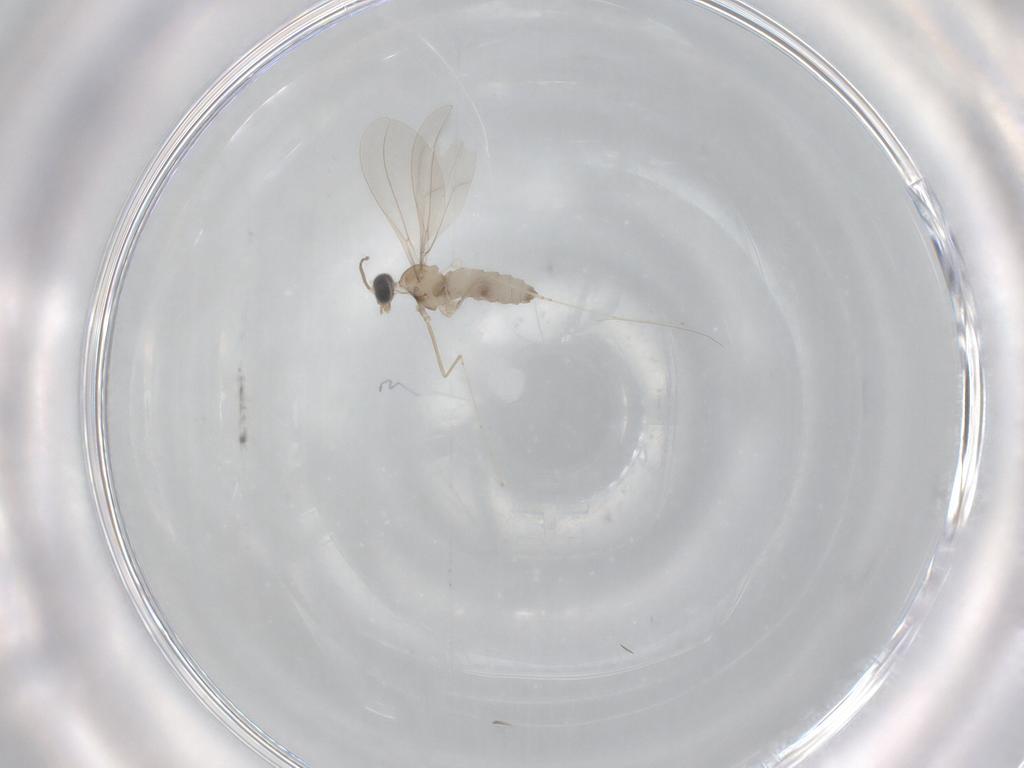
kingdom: Animalia
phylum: Arthropoda
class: Insecta
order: Diptera
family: Cecidomyiidae
